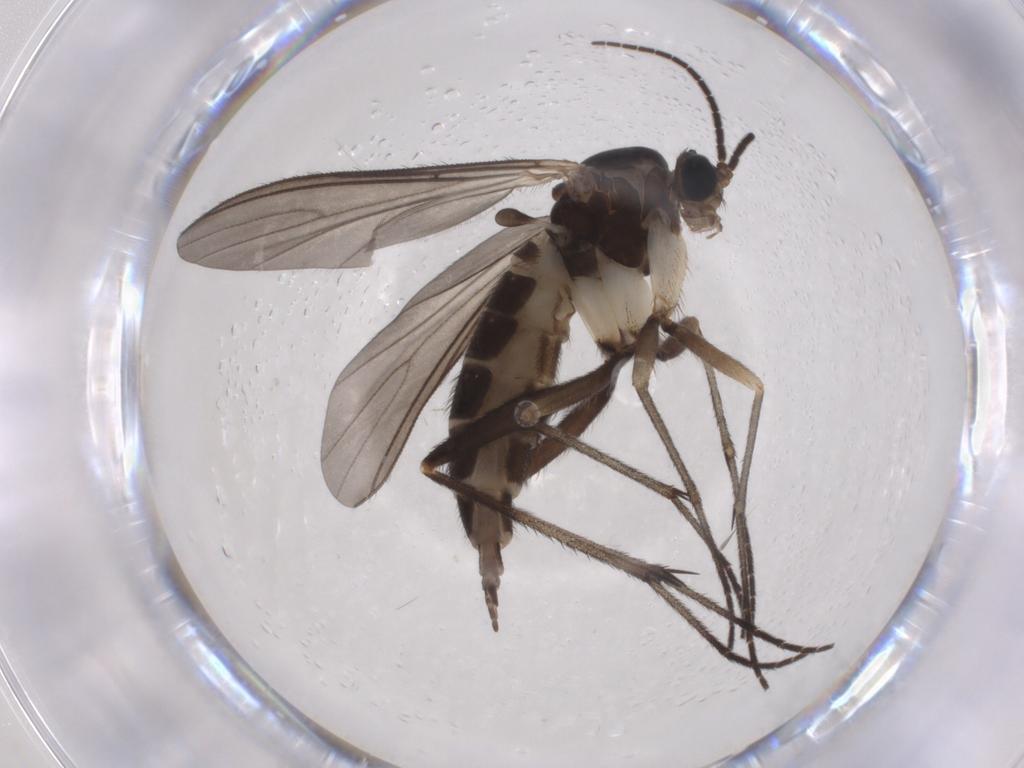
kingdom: Animalia
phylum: Arthropoda
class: Insecta
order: Diptera
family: Sciaridae
